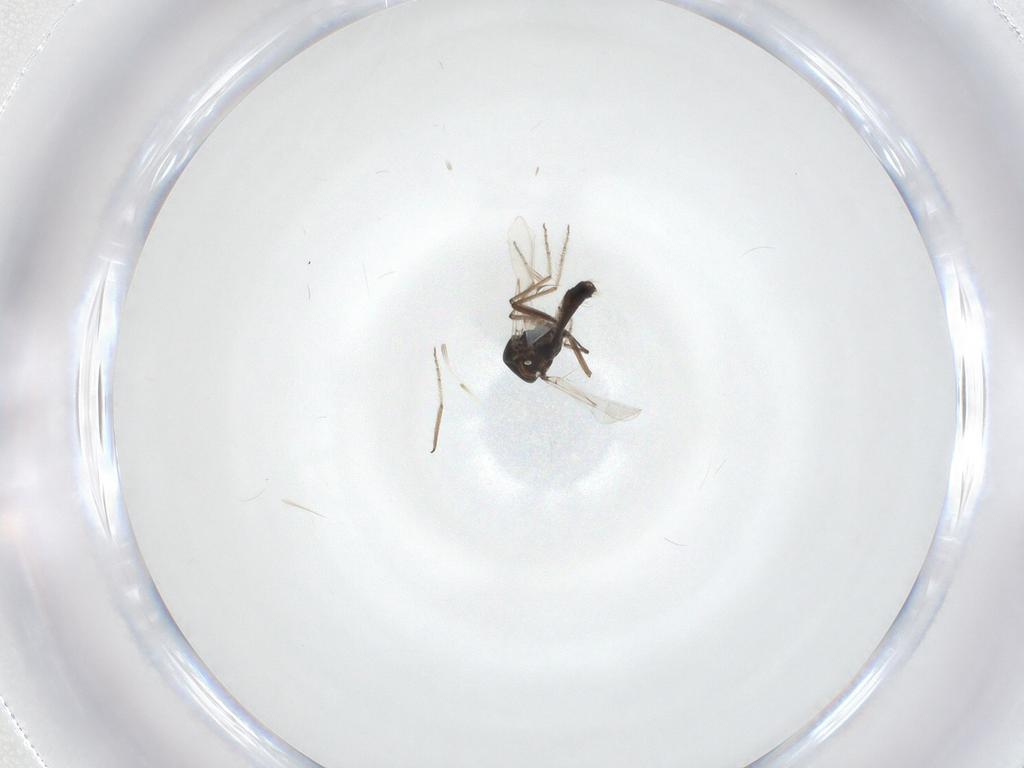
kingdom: Animalia
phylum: Arthropoda
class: Insecta
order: Diptera
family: Ceratopogonidae
